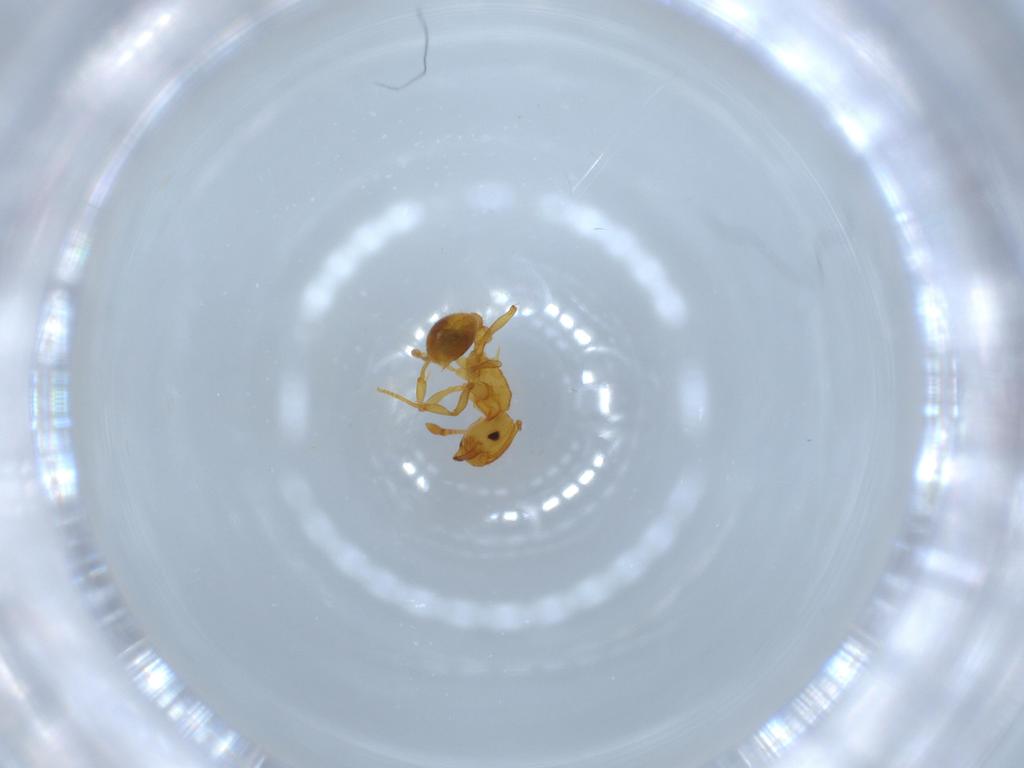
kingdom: Animalia
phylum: Arthropoda
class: Insecta
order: Hymenoptera
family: Formicidae
